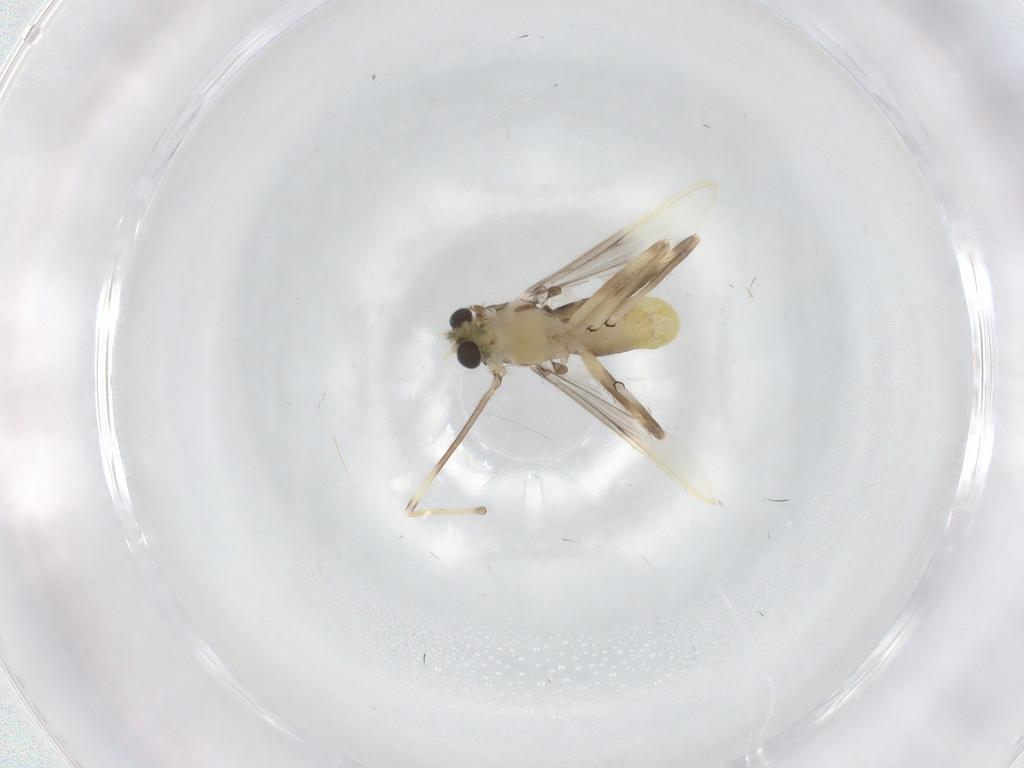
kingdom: Animalia
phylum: Arthropoda
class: Insecta
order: Diptera
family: Chironomidae
